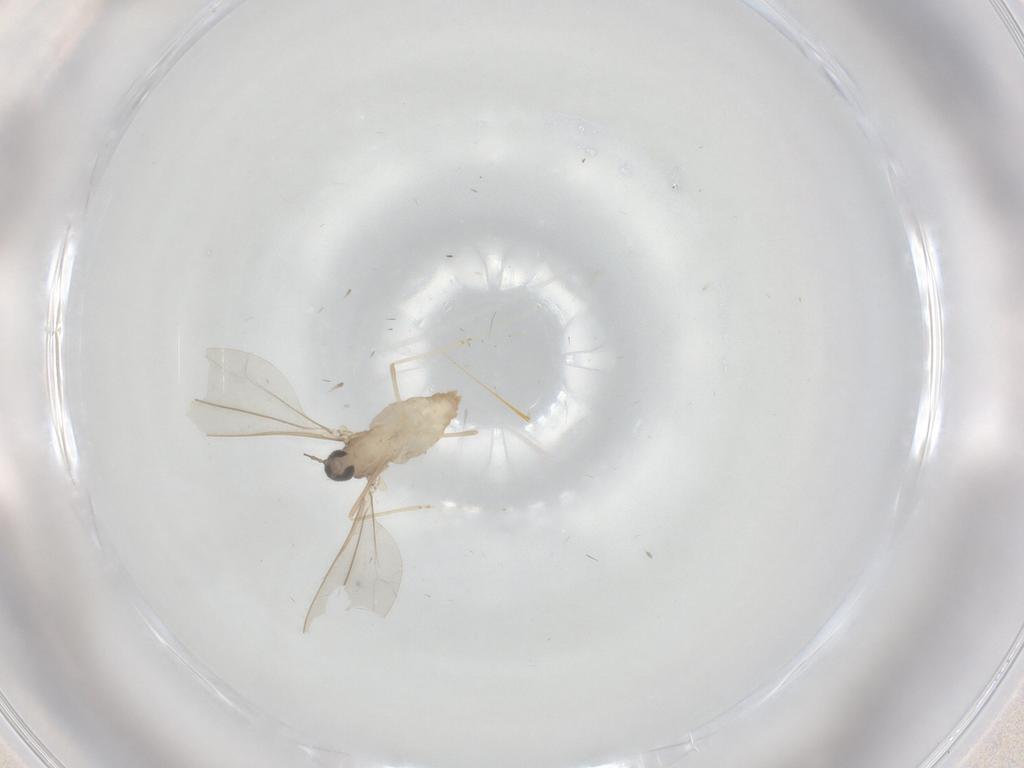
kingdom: Animalia
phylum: Arthropoda
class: Insecta
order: Diptera
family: Cecidomyiidae
